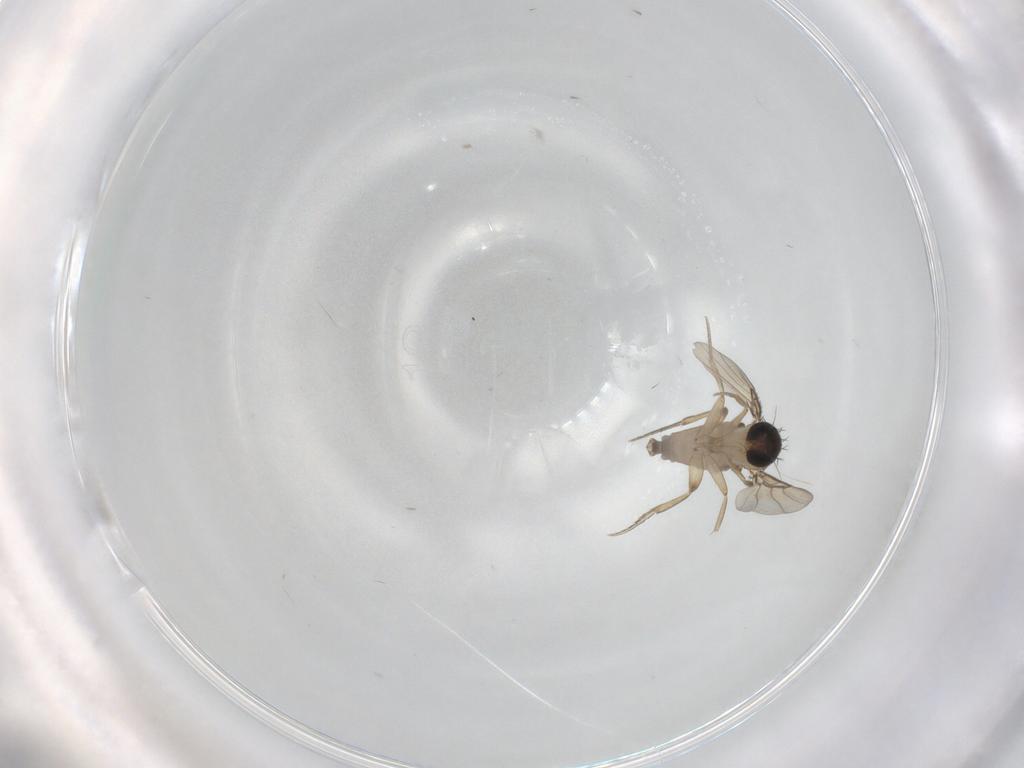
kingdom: Animalia
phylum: Arthropoda
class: Insecta
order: Diptera
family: Phoridae
